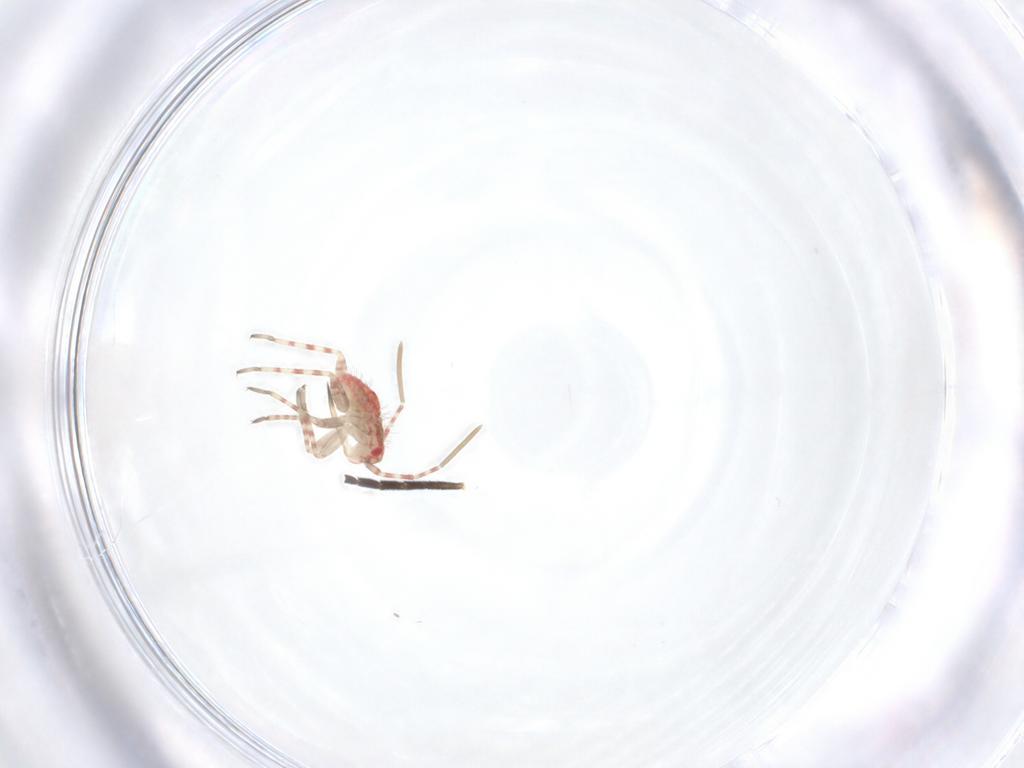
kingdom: Animalia
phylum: Arthropoda
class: Insecta
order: Hemiptera
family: Miridae
